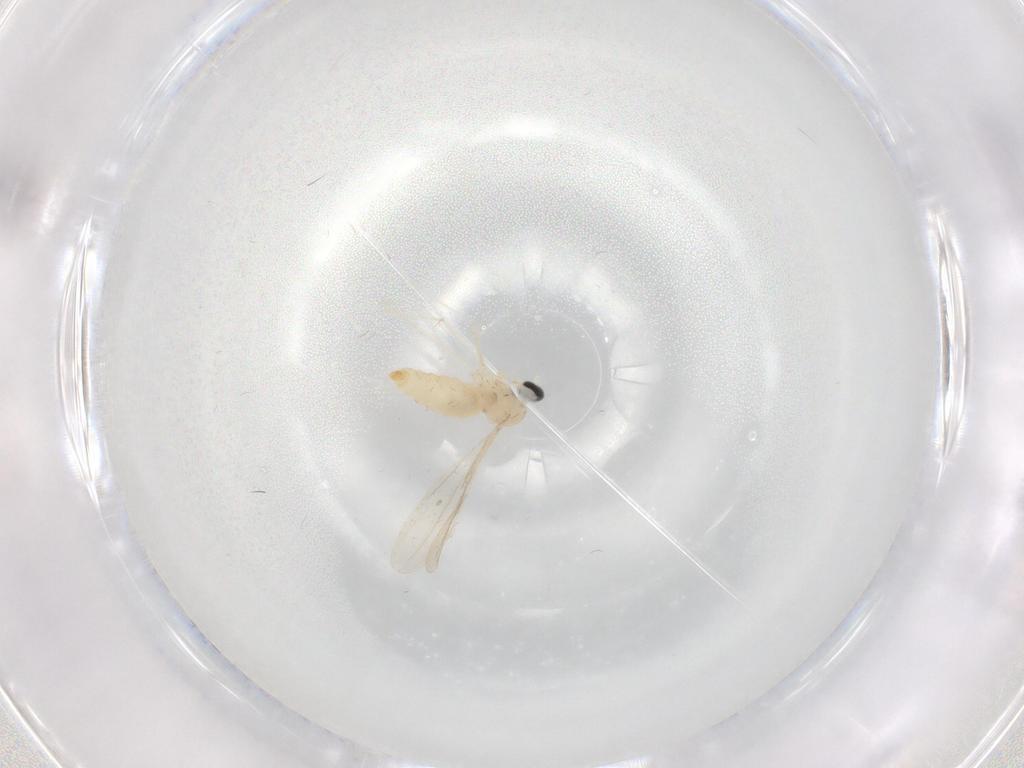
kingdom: Animalia
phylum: Arthropoda
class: Insecta
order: Diptera
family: Cecidomyiidae
